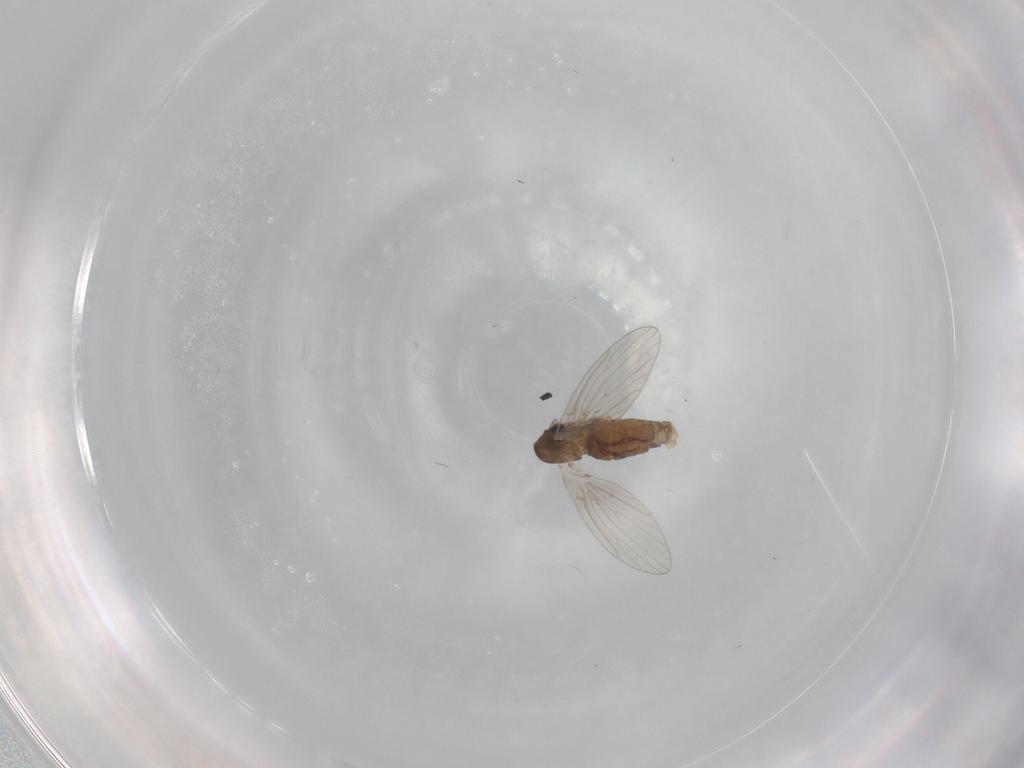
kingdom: Animalia
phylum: Arthropoda
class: Insecta
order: Diptera
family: Psychodidae
